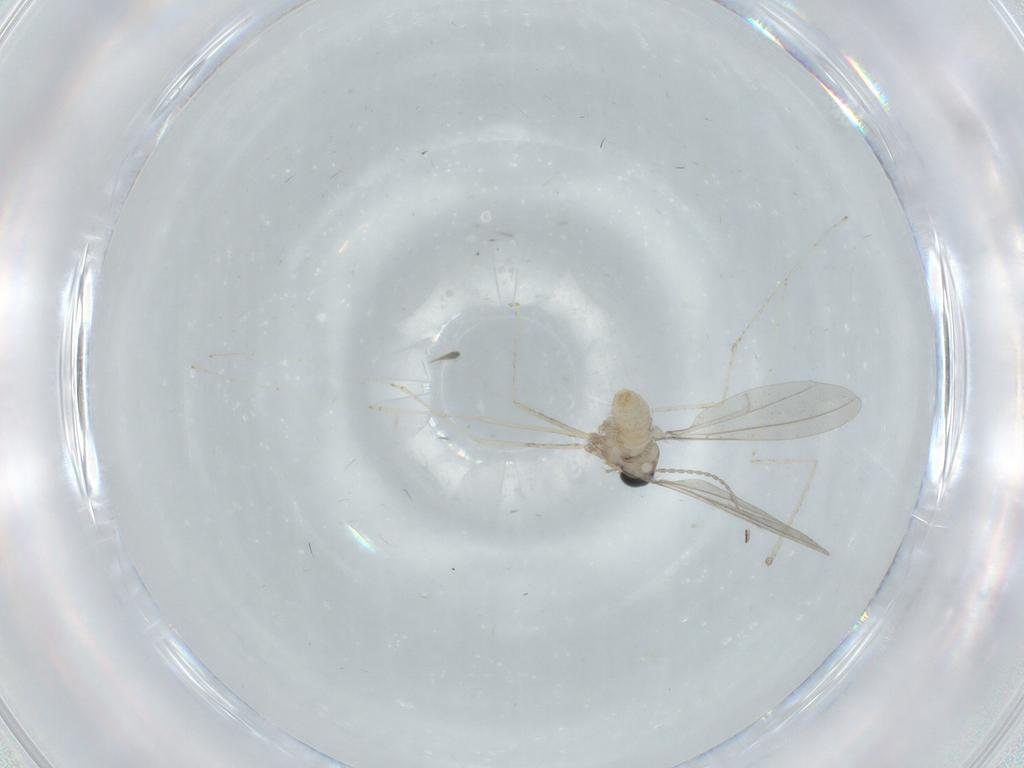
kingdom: Animalia
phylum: Arthropoda
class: Insecta
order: Diptera
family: Cecidomyiidae
